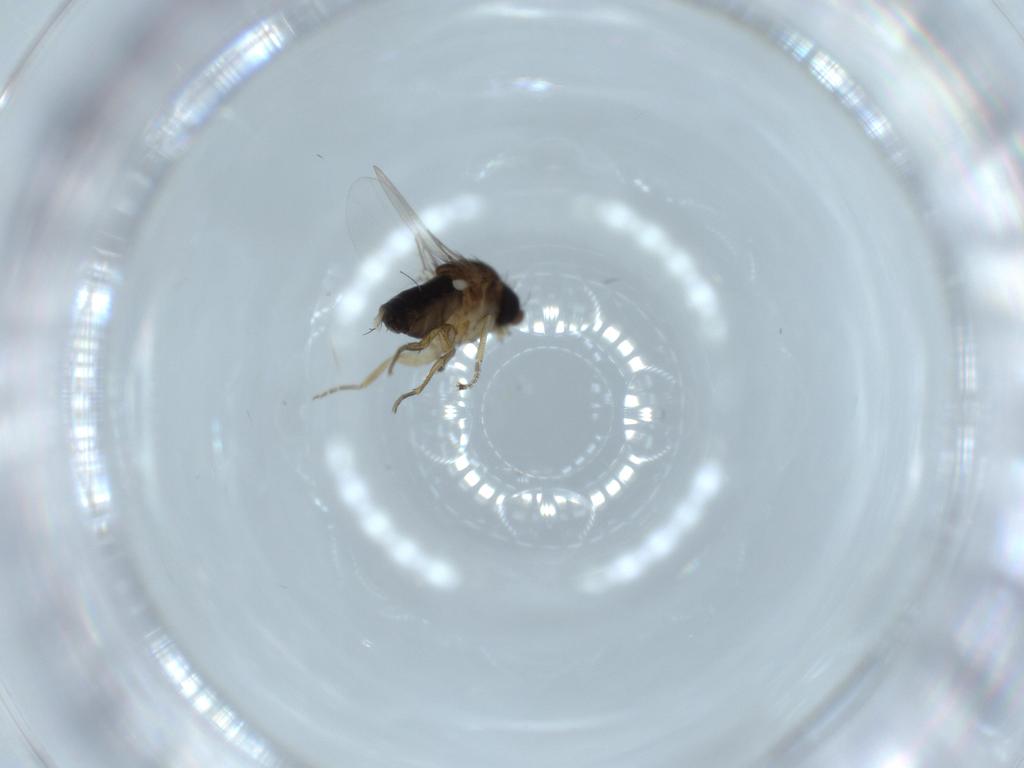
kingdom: Animalia
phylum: Arthropoda
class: Insecta
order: Diptera
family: Phoridae
